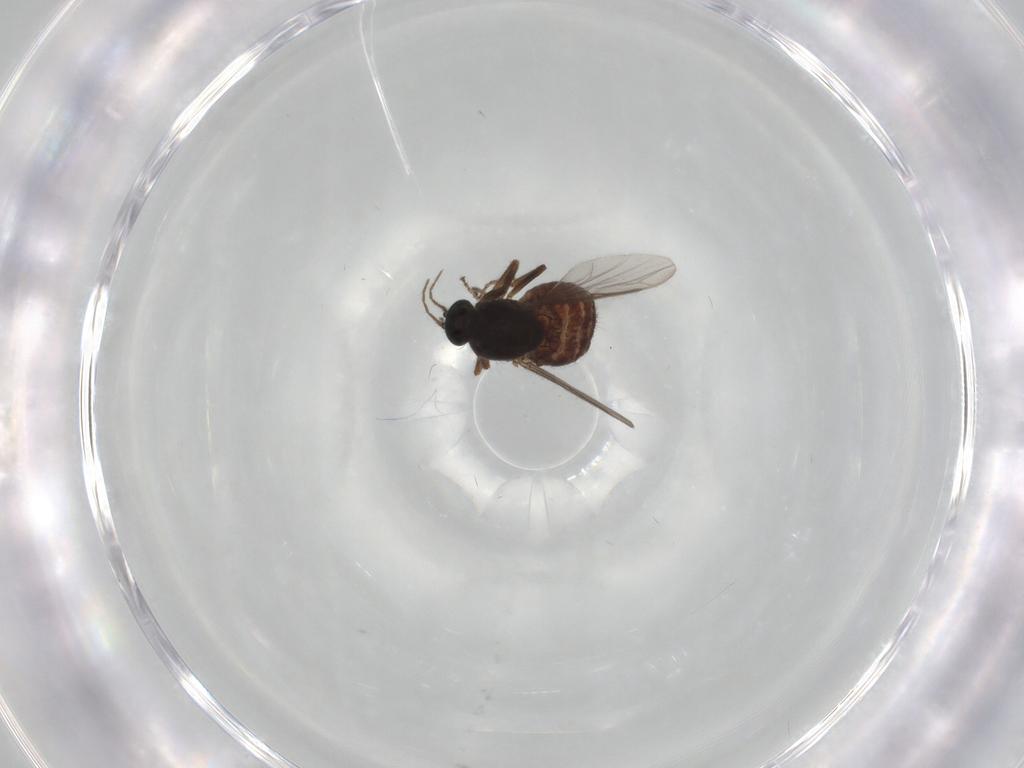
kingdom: Animalia
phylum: Arthropoda
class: Insecta
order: Diptera
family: Ceratopogonidae
